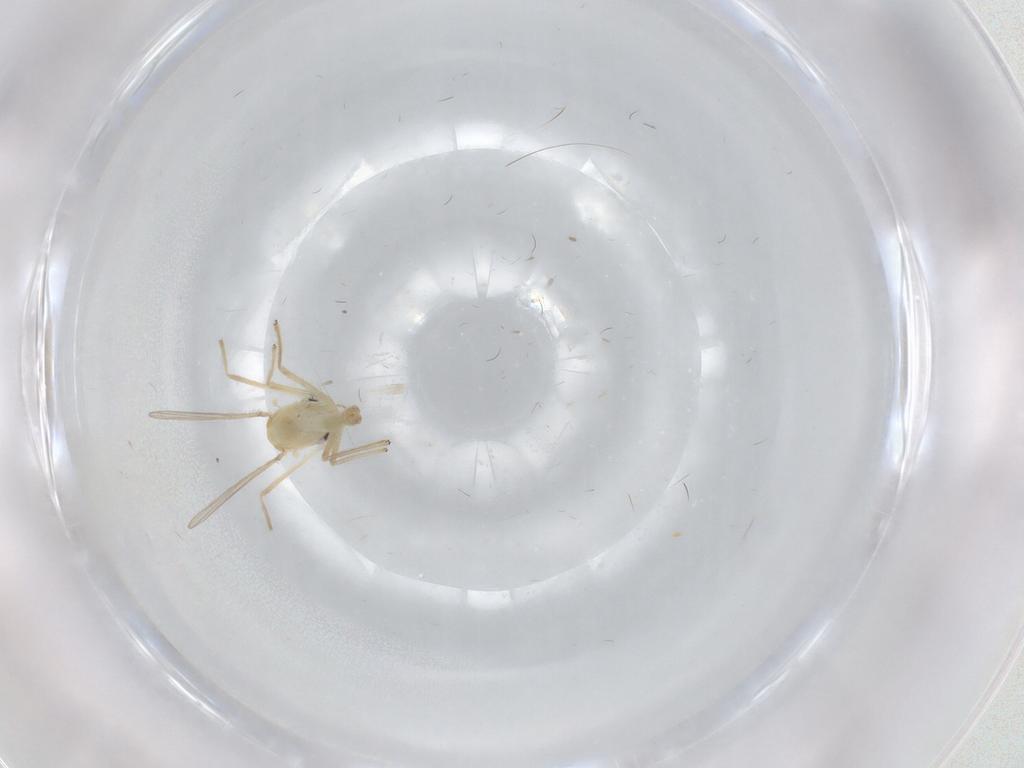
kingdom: Animalia
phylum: Arthropoda
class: Insecta
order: Diptera
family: Chironomidae
